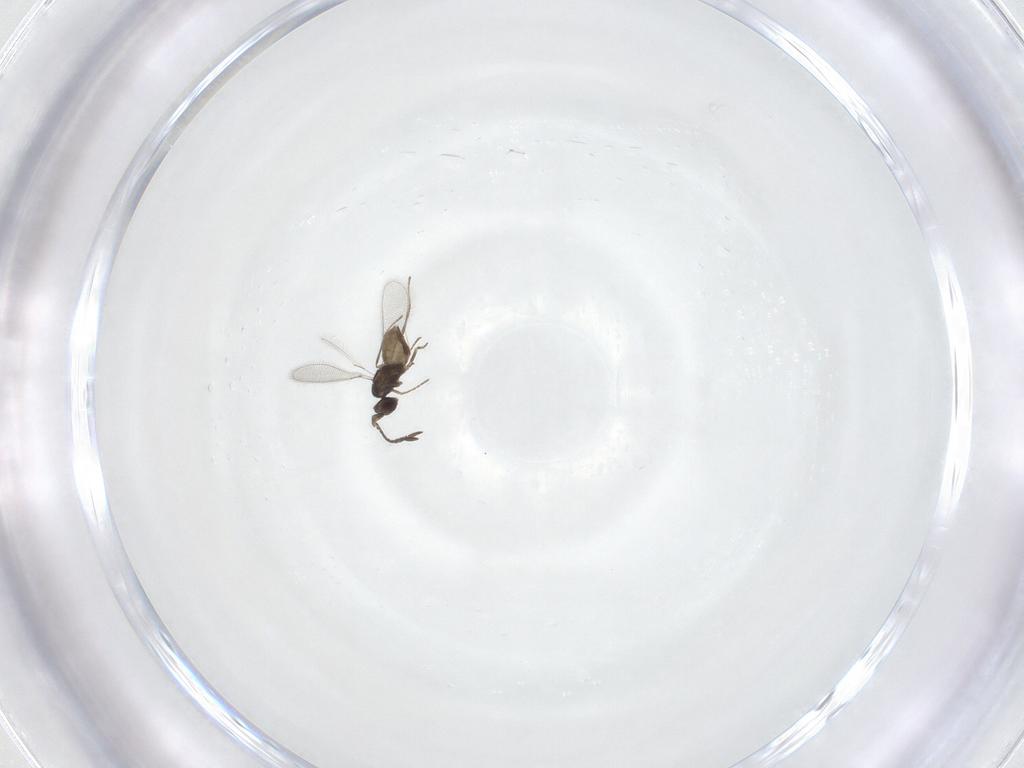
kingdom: Animalia
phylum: Arthropoda
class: Insecta
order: Hymenoptera
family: Mymaridae
